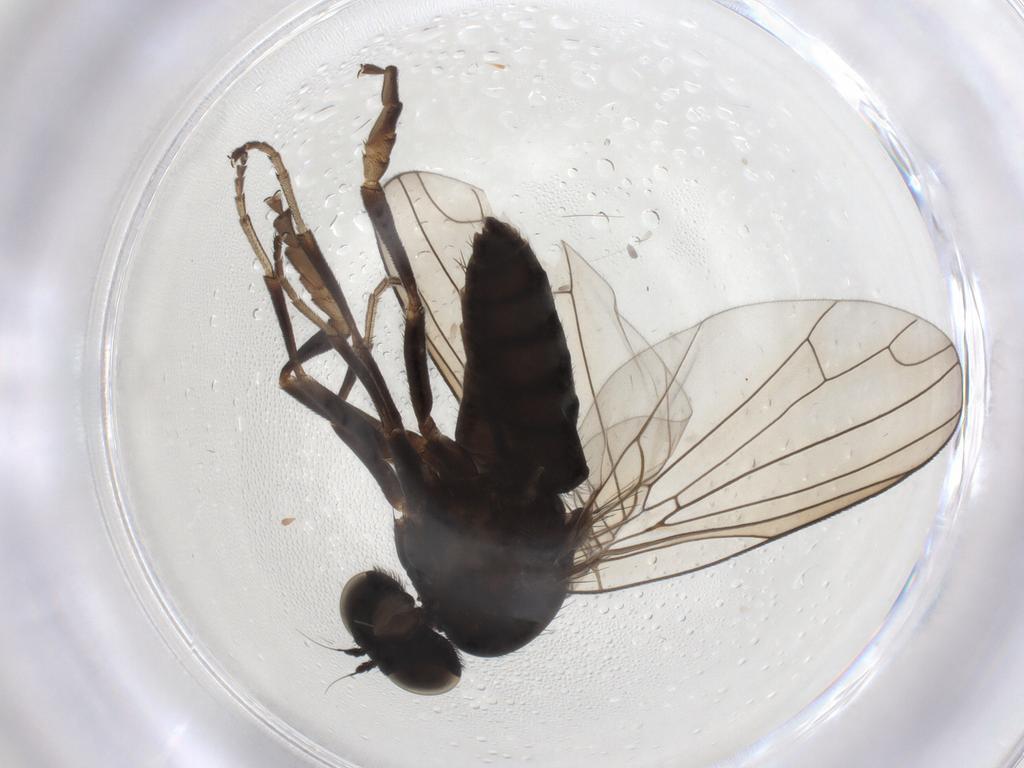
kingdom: Animalia
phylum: Arthropoda
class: Insecta
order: Diptera
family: Platypezidae
